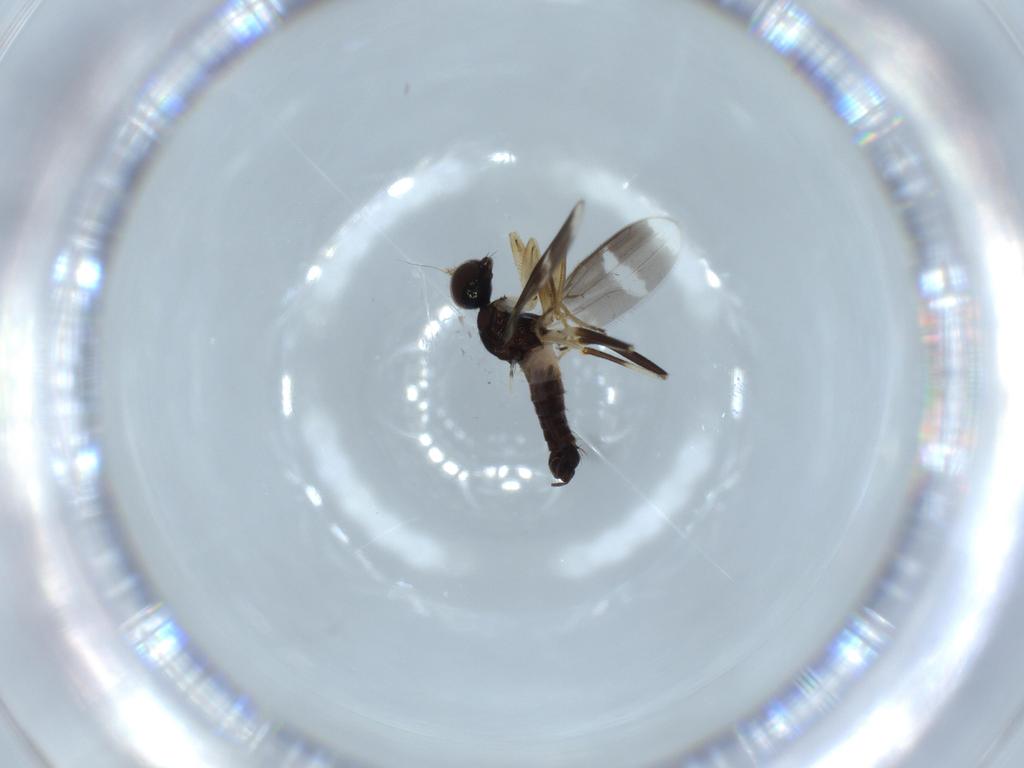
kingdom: Animalia
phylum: Arthropoda
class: Insecta
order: Diptera
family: Hybotidae
